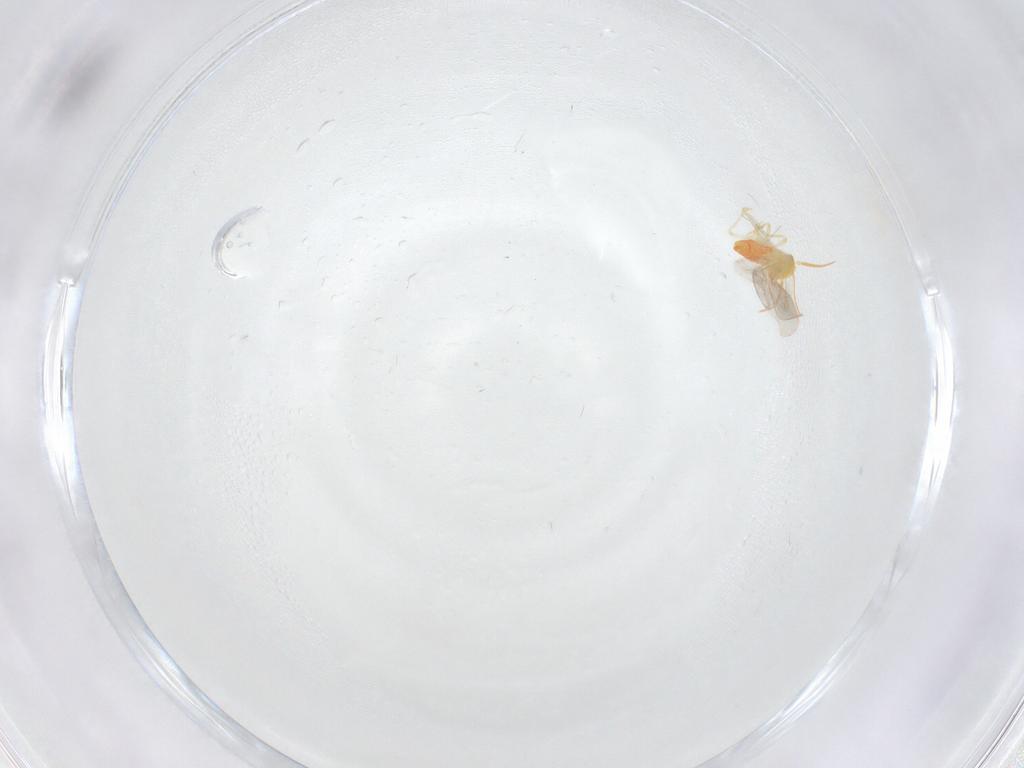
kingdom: Animalia
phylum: Arthropoda
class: Insecta
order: Hemiptera
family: Aleyrodidae
